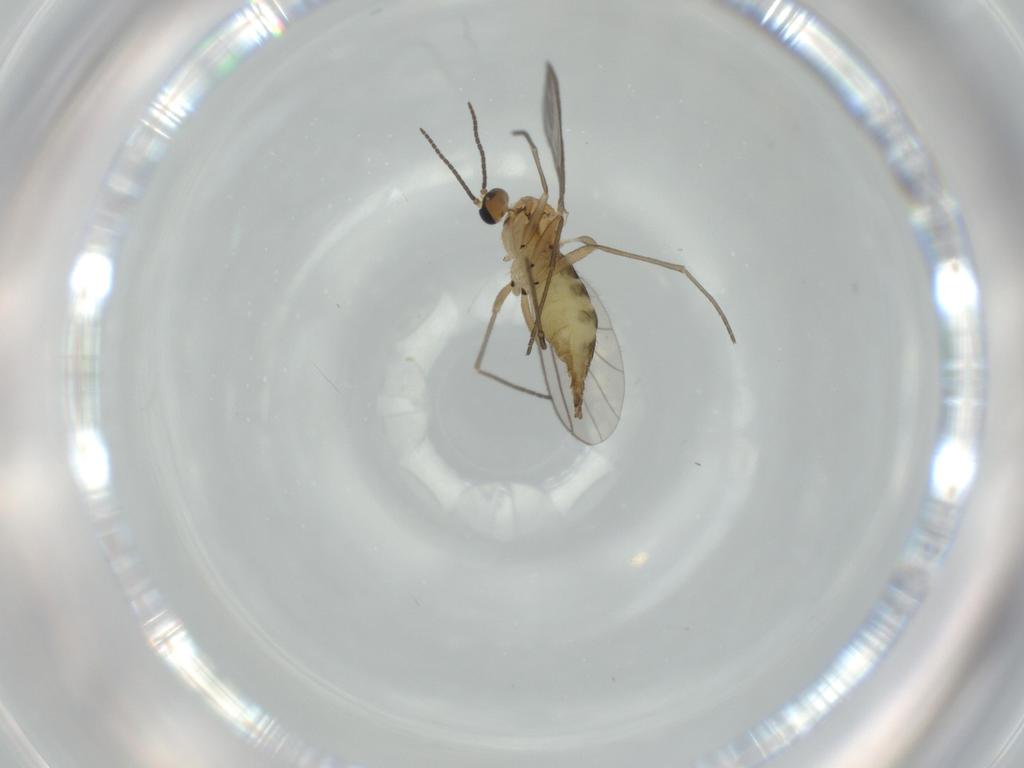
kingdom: Animalia
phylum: Arthropoda
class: Insecta
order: Diptera
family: Sciaridae
